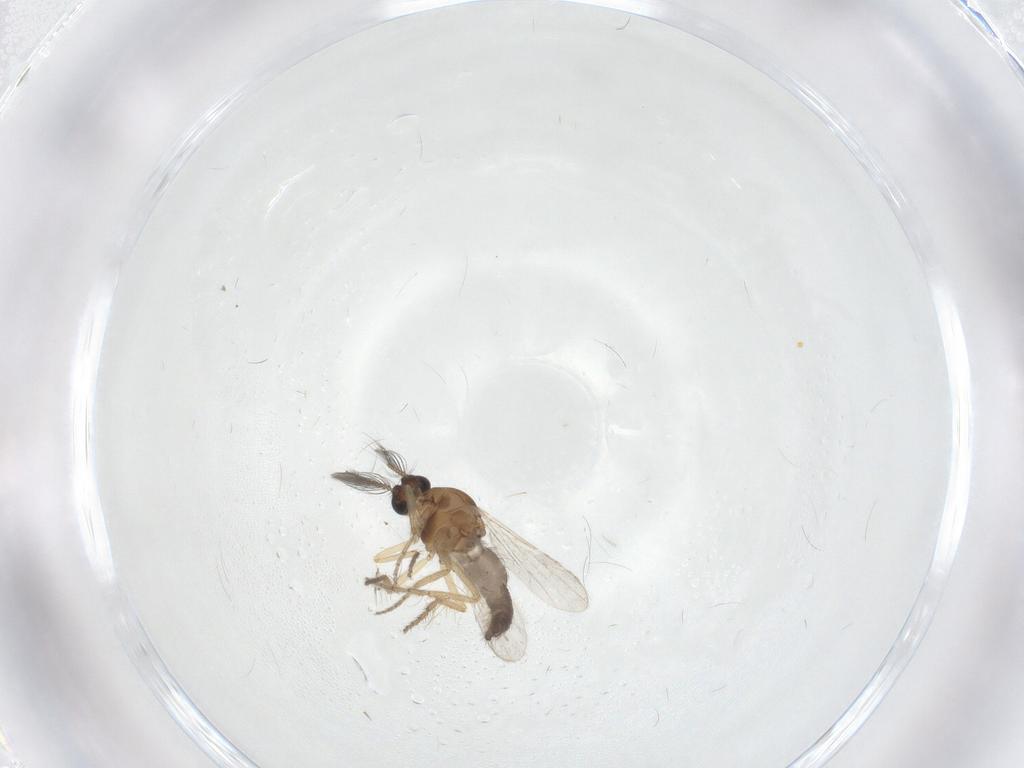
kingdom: Animalia
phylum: Arthropoda
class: Insecta
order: Diptera
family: Ceratopogonidae
